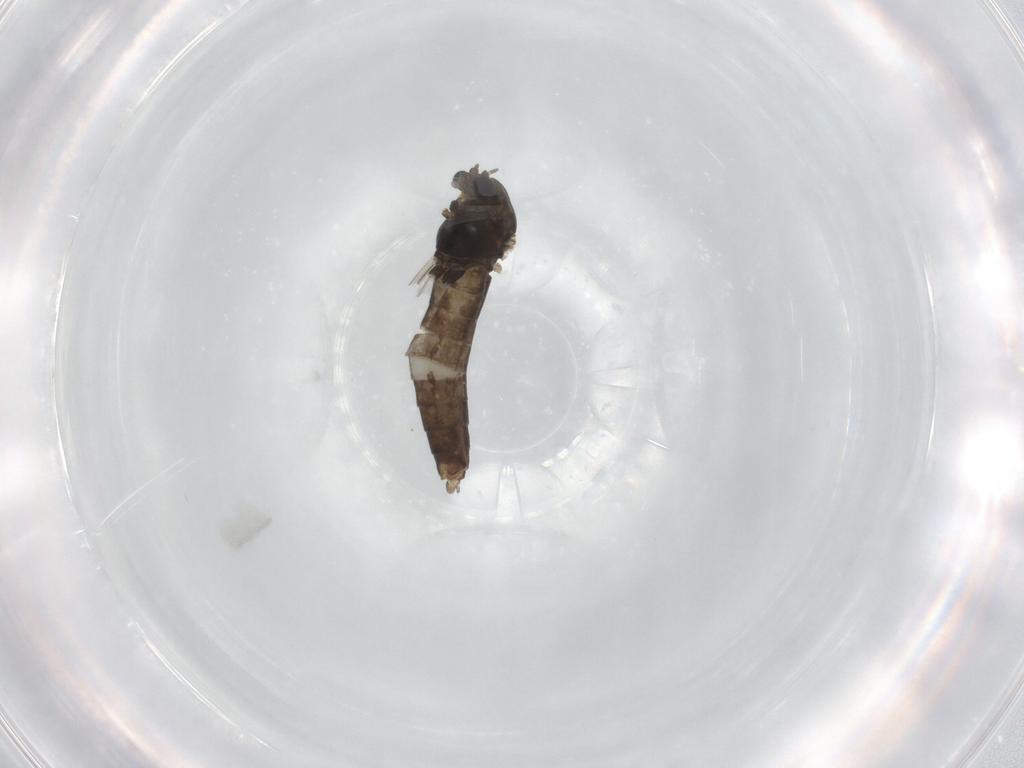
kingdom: Animalia
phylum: Arthropoda
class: Insecta
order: Diptera
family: Chironomidae
